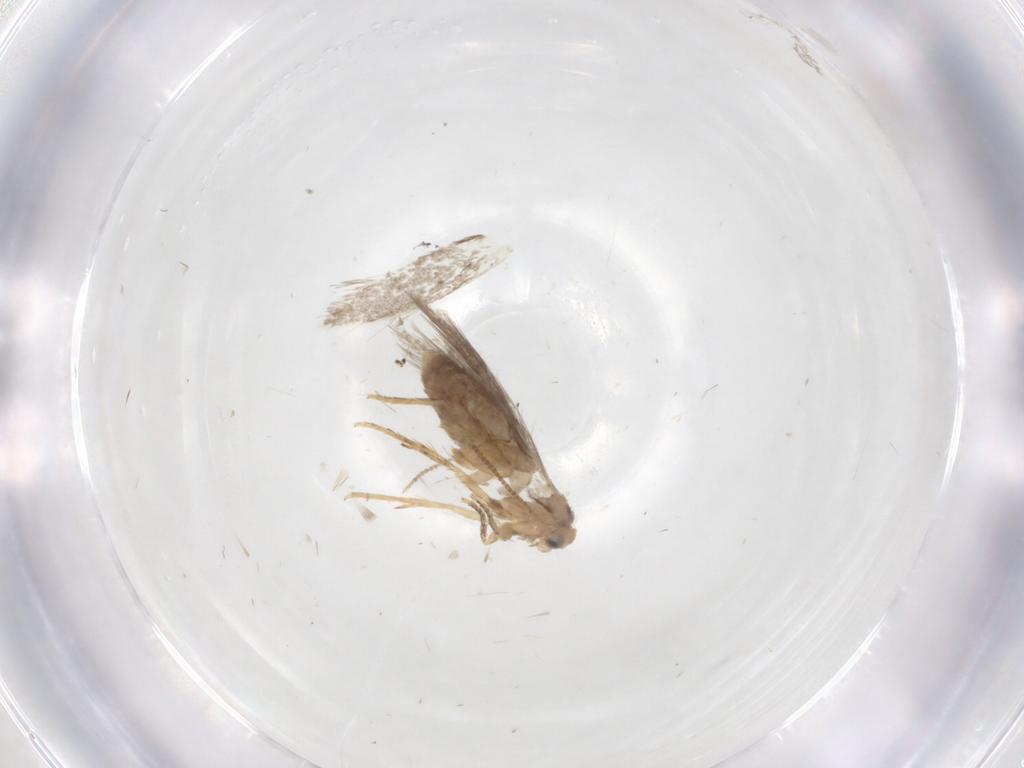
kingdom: Animalia
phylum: Arthropoda
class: Insecta
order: Lepidoptera
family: Nepticulidae
